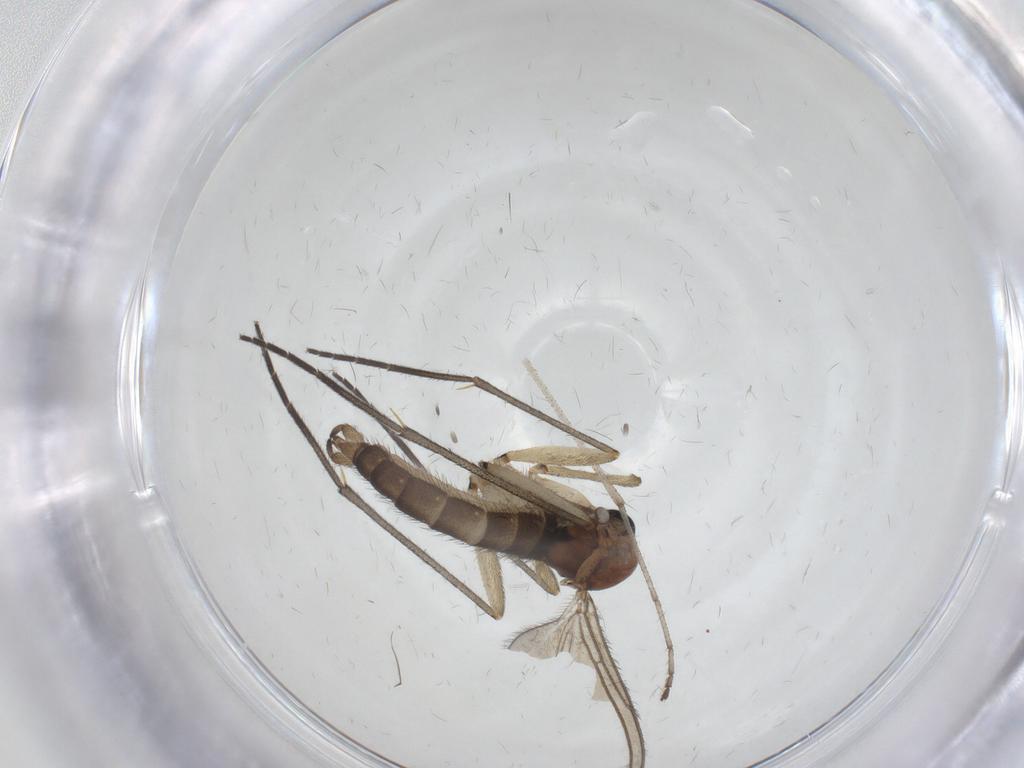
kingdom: Animalia
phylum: Arthropoda
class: Insecta
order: Diptera
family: Sciaridae
